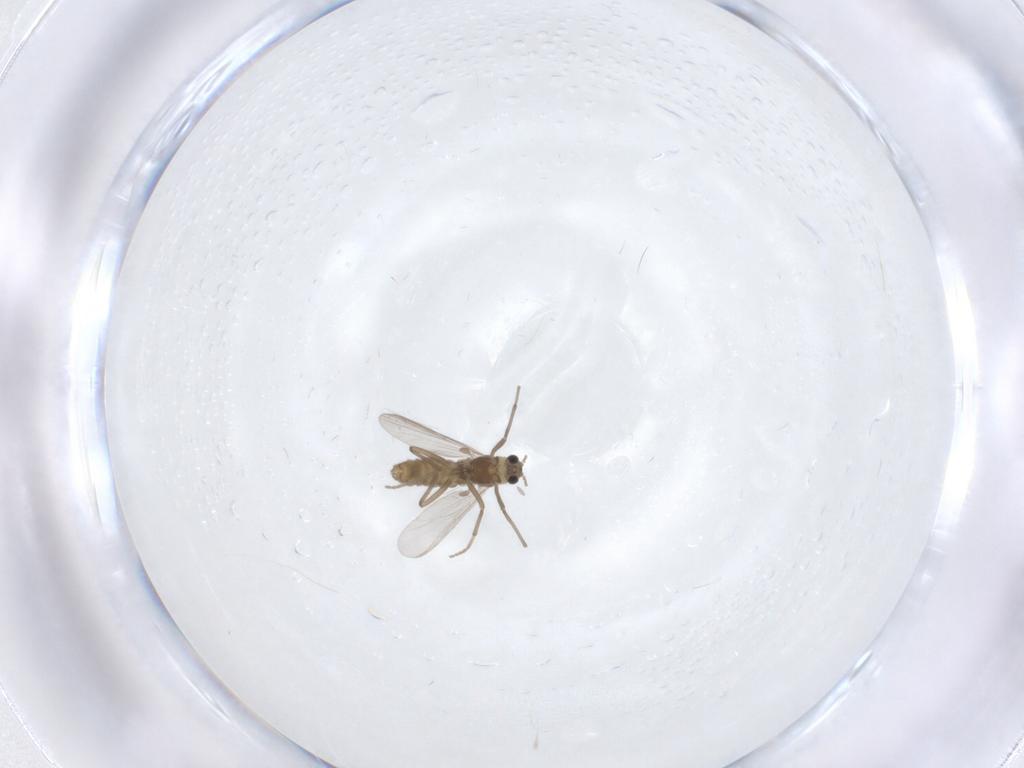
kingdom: Animalia
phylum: Arthropoda
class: Insecta
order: Diptera
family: Chironomidae
